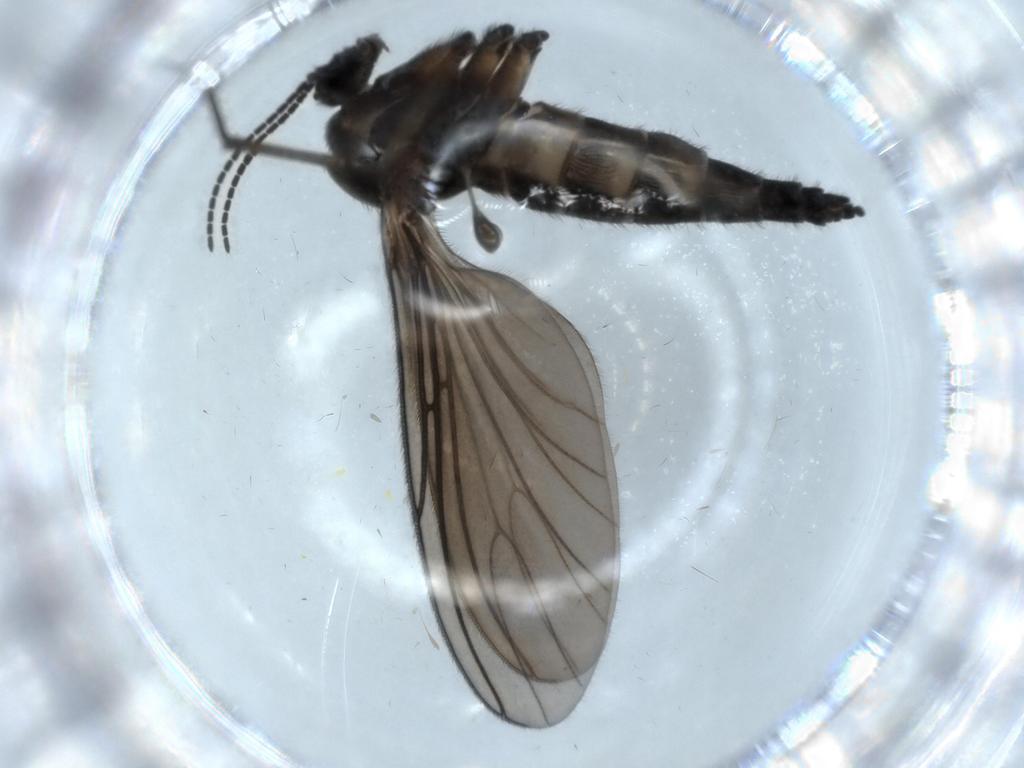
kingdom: Animalia
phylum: Arthropoda
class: Insecta
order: Diptera
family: Sciaridae
